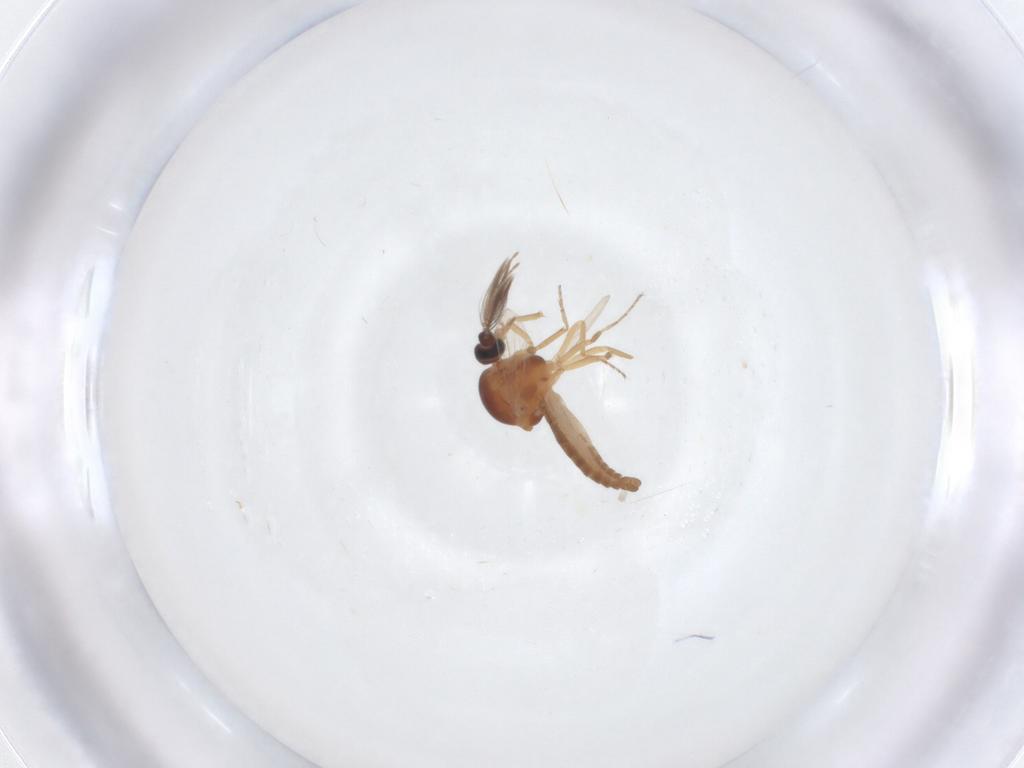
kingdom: Animalia
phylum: Arthropoda
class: Insecta
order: Diptera
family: Ceratopogonidae
